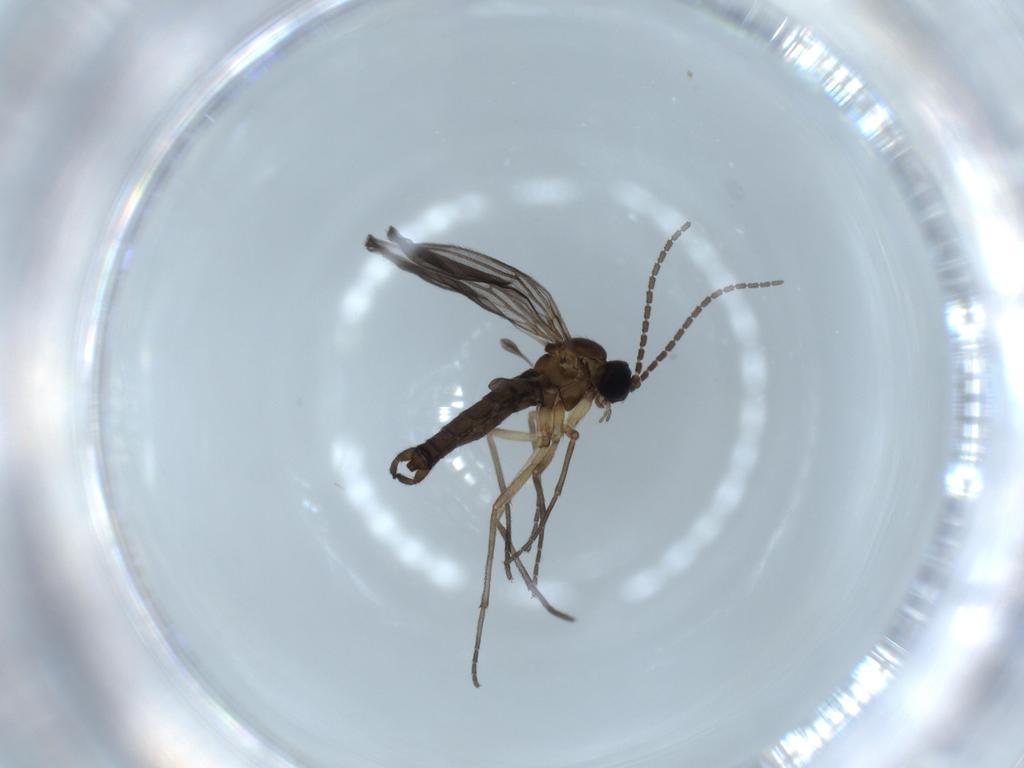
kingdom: Animalia
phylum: Arthropoda
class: Insecta
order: Diptera
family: Sciaridae
